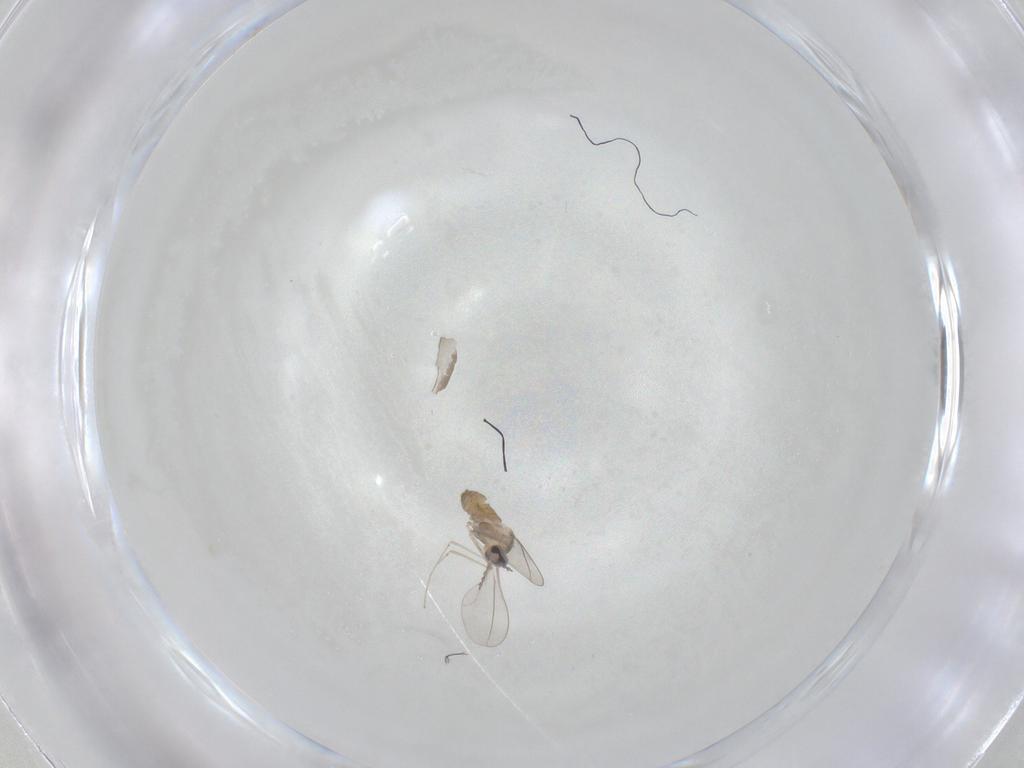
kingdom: Animalia
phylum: Arthropoda
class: Insecta
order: Diptera
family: Cecidomyiidae
